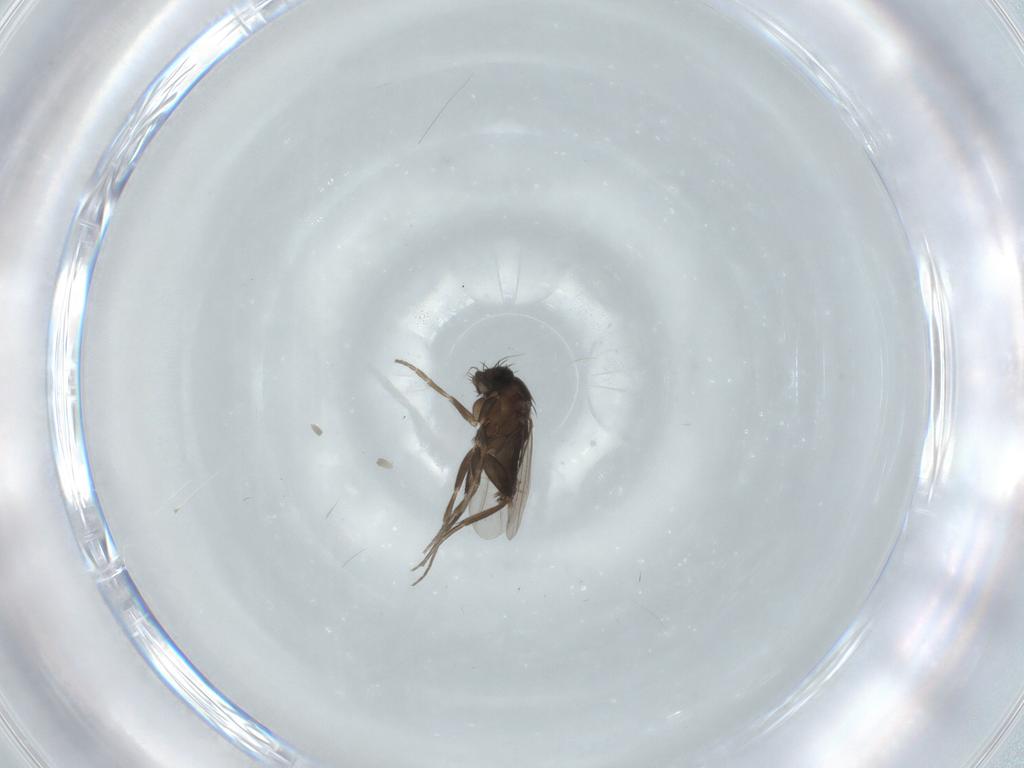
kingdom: Animalia
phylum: Arthropoda
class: Insecta
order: Diptera
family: Phoridae
